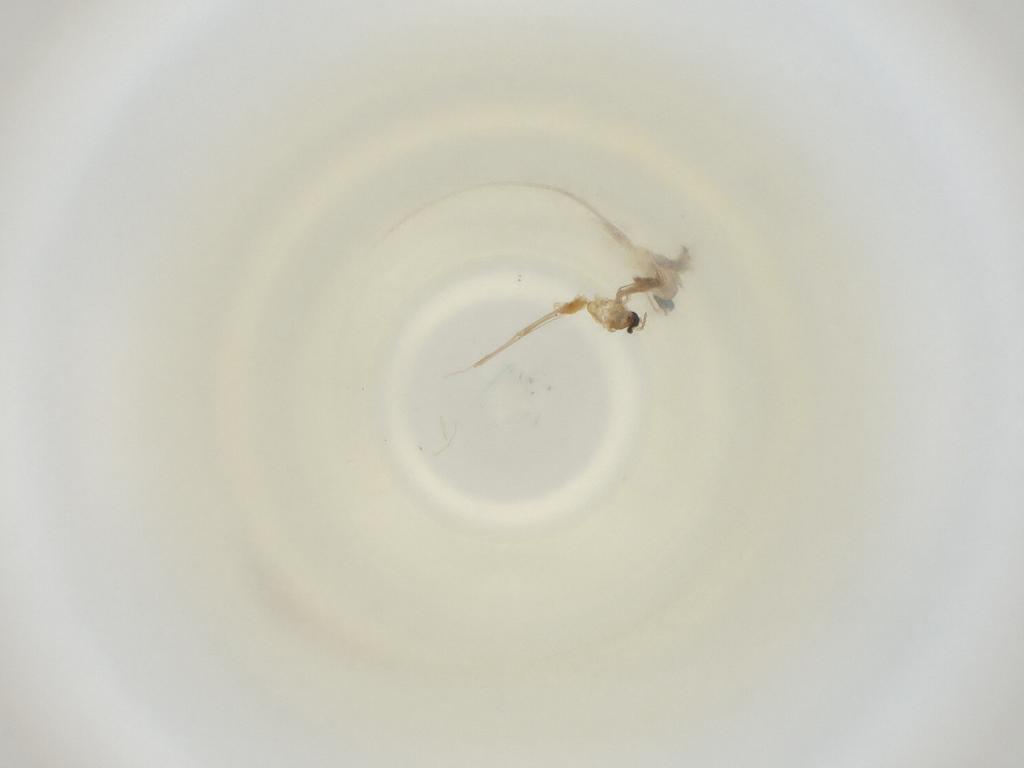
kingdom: Animalia
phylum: Arthropoda
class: Insecta
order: Diptera
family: Cecidomyiidae
